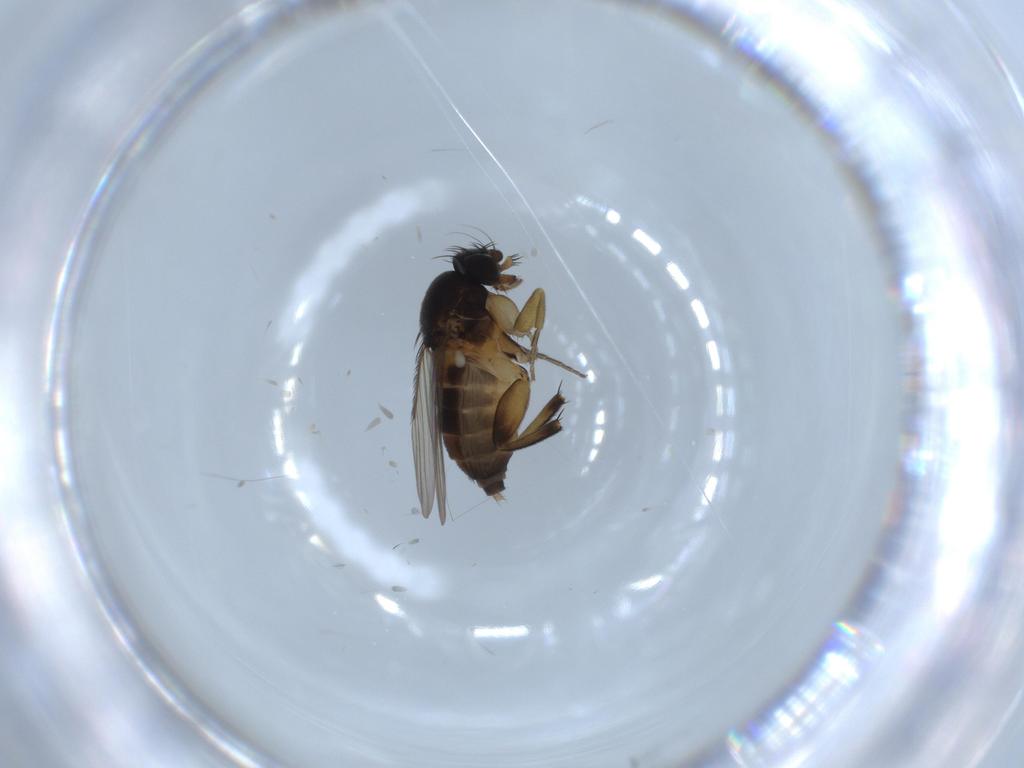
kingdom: Animalia
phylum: Arthropoda
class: Insecta
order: Diptera
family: Phoridae
